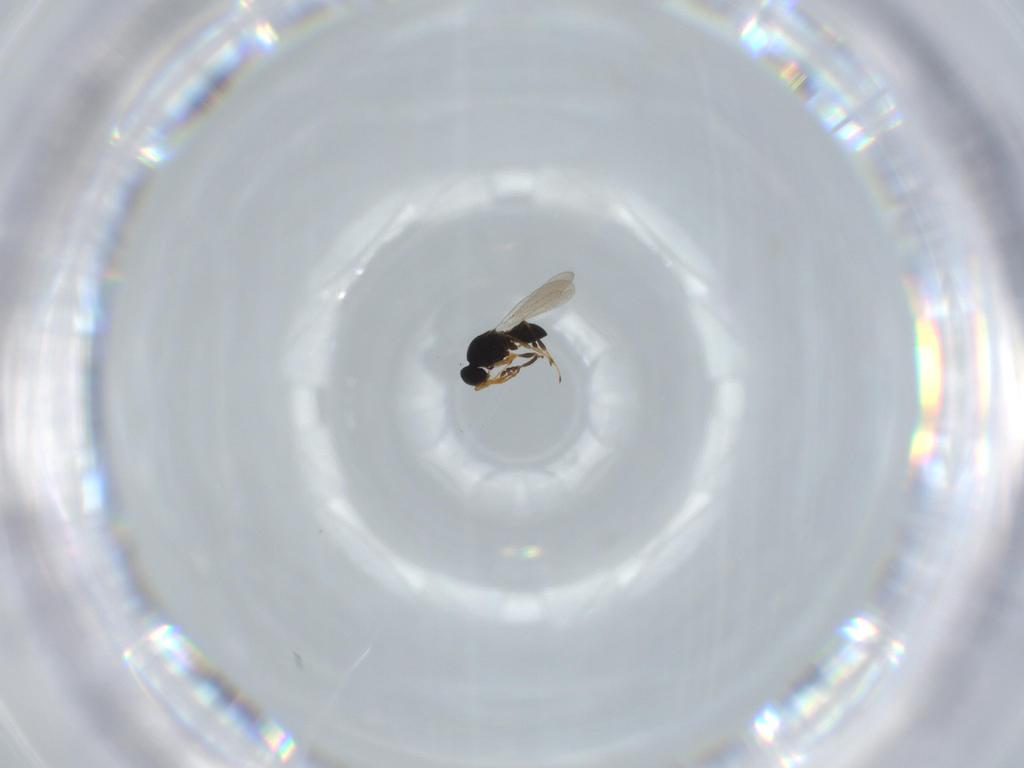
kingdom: Animalia
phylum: Arthropoda
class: Insecta
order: Hymenoptera
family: Platygastridae
